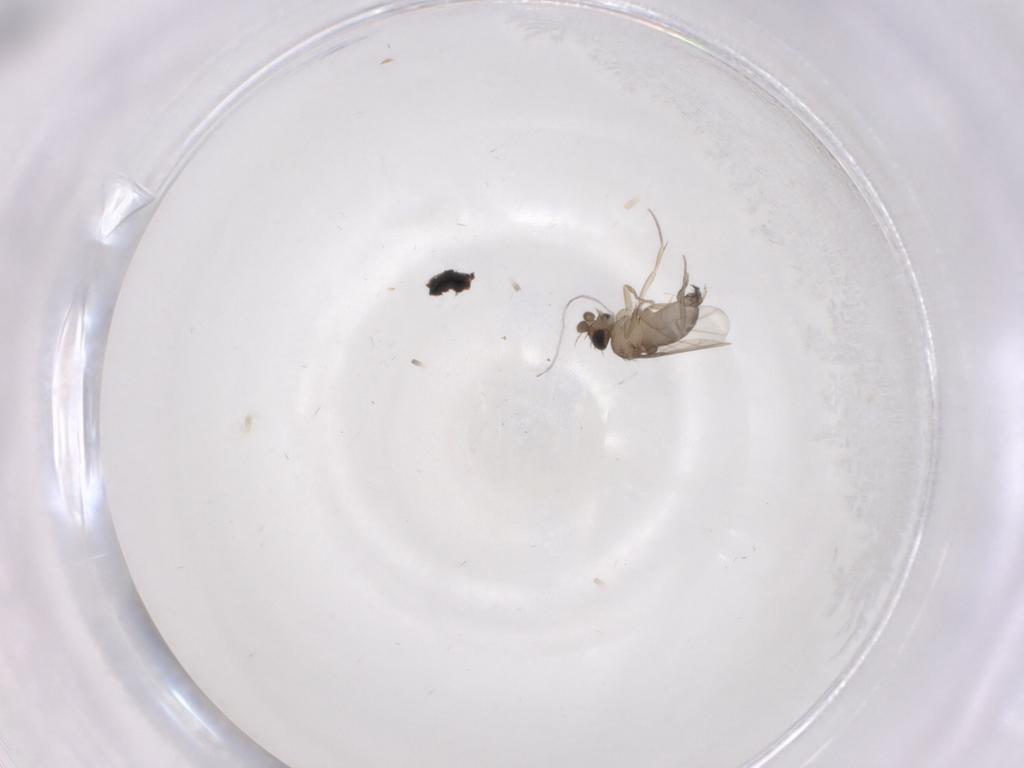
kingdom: Animalia
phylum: Arthropoda
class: Insecta
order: Diptera
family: Phoridae
